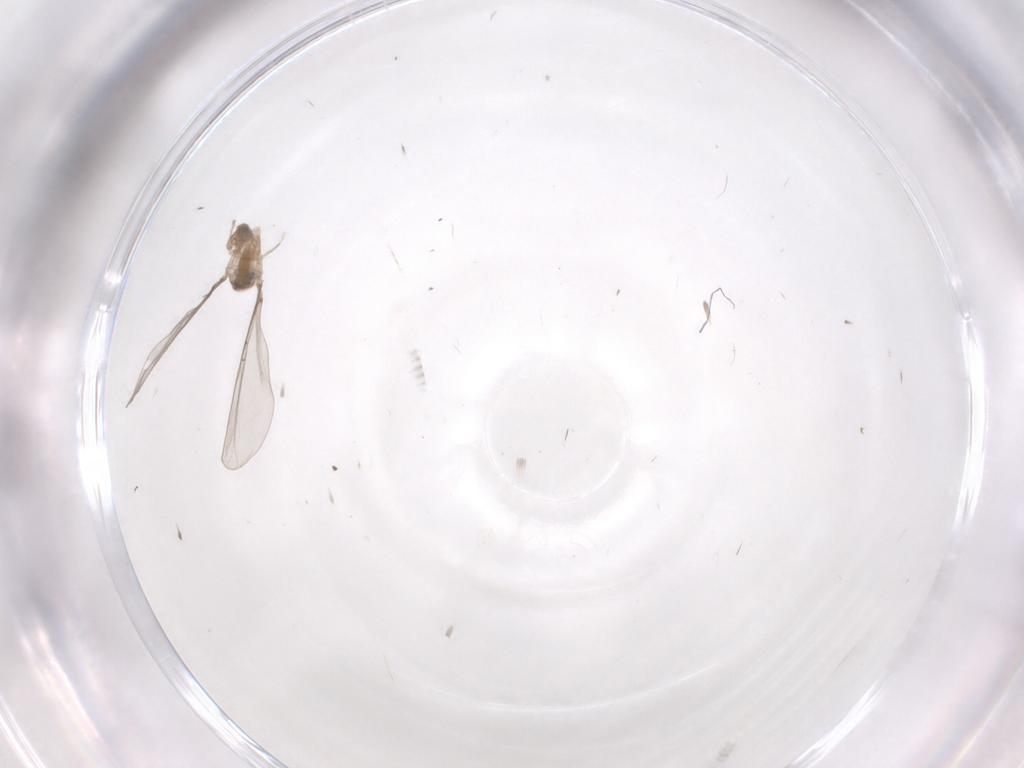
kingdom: Animalia
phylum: Arthropoda
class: Insecta
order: Diptera
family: Cecidomyiidae
